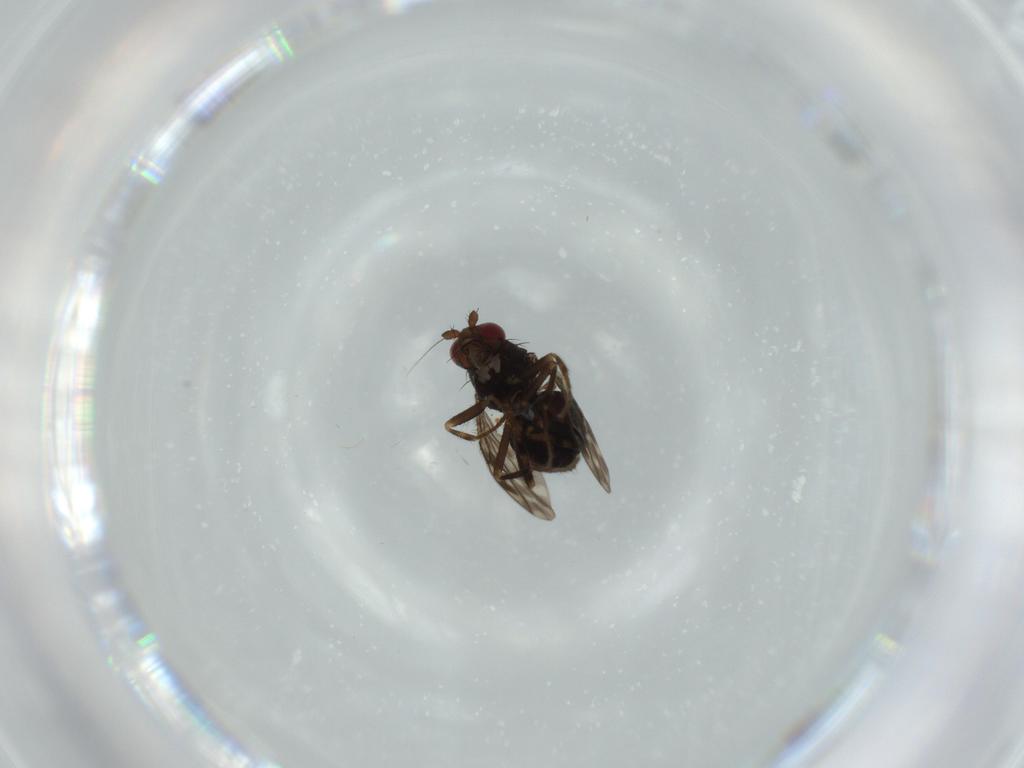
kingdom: Animalia
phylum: Arthropoda
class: Insecta
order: Diptera
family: Sphaeroceridae
